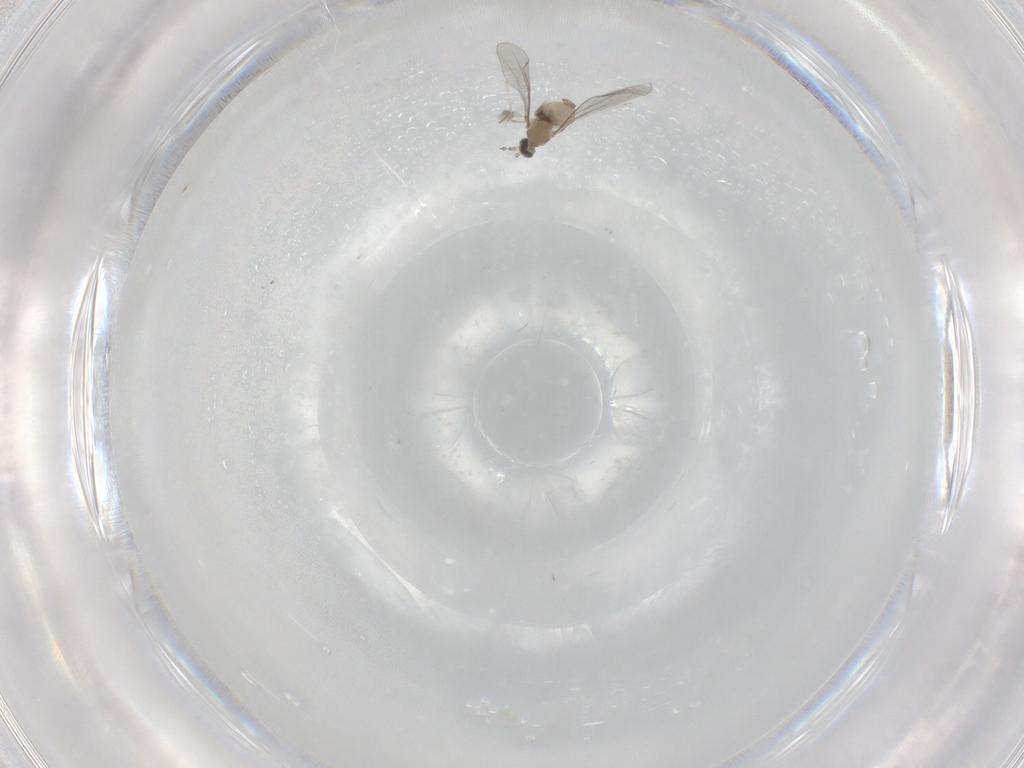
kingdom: Animalia
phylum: Arthropoda
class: Insecta
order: Diptera
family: Cecidomyiidae
